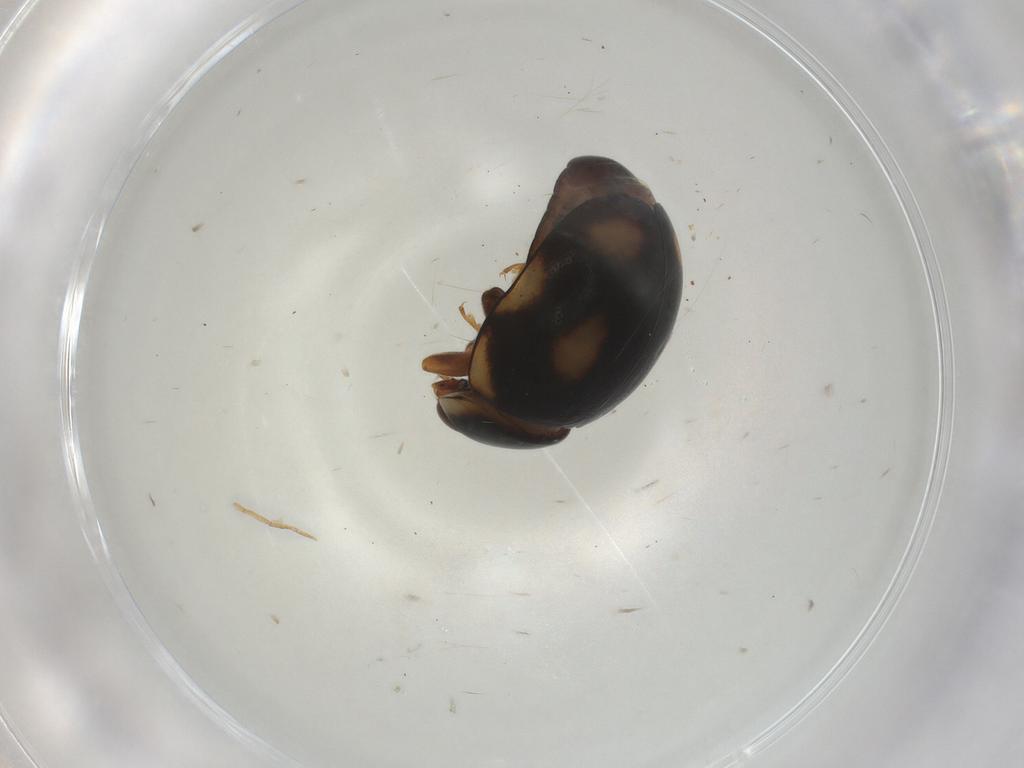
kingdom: Animalia
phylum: Arthropoda
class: Insecta
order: Coleoptera
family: Coccinellidae
